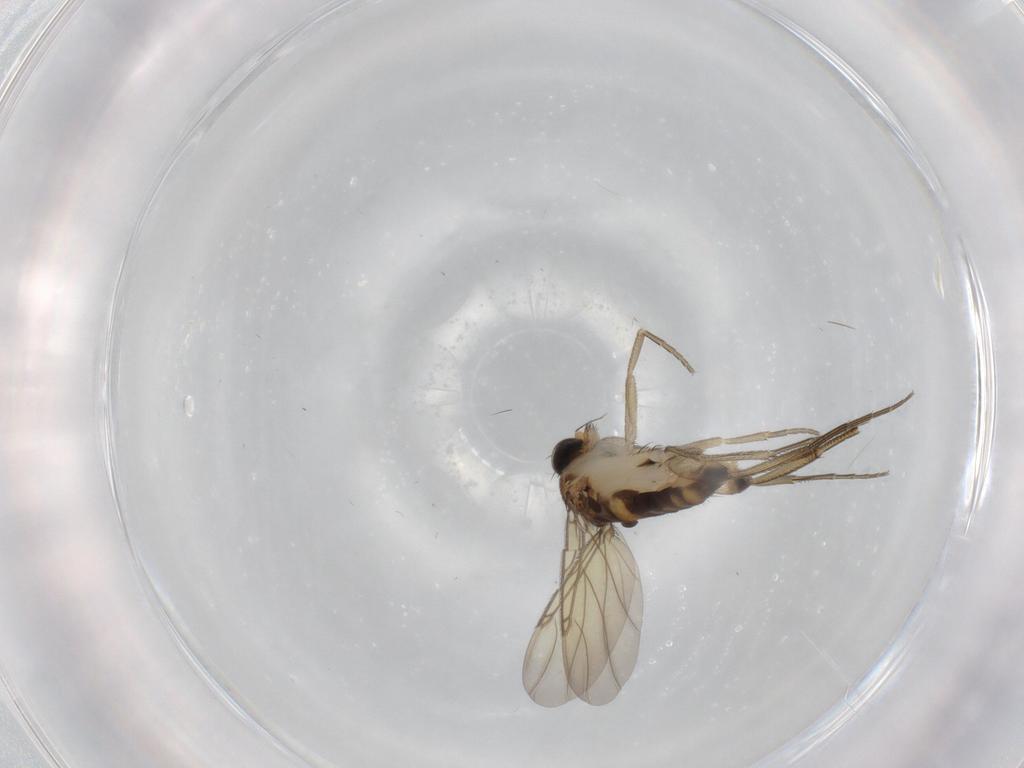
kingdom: Animalia
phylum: Arthropoda
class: Insecta
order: Diptera
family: Phoridae
